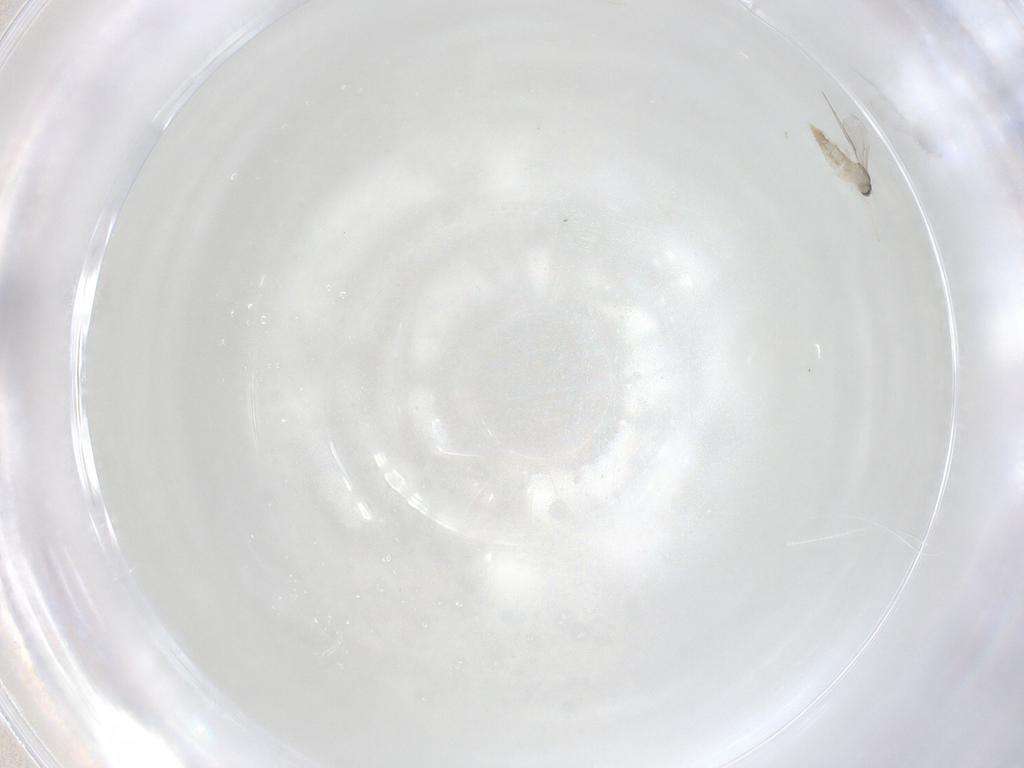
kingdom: Animalia
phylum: Arthropoda
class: Insecta
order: Diptera
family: Cecidomyiidae
